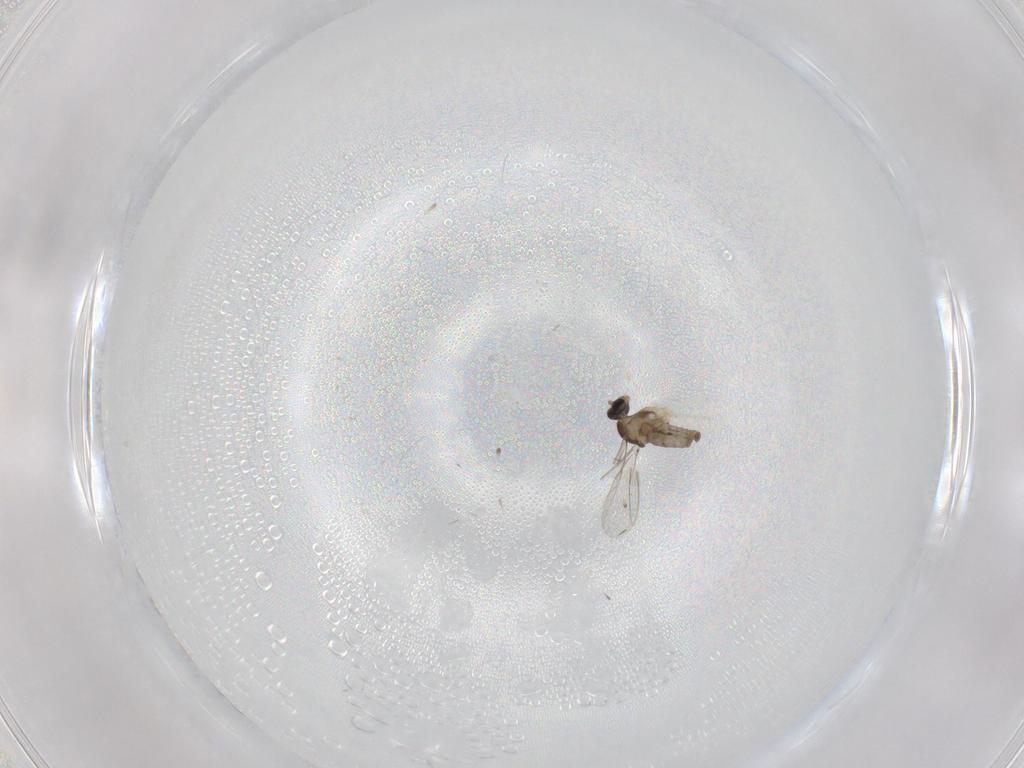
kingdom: Animalia
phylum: Arthropoda
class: Insecta
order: Diptera
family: Cecidomyiidae
